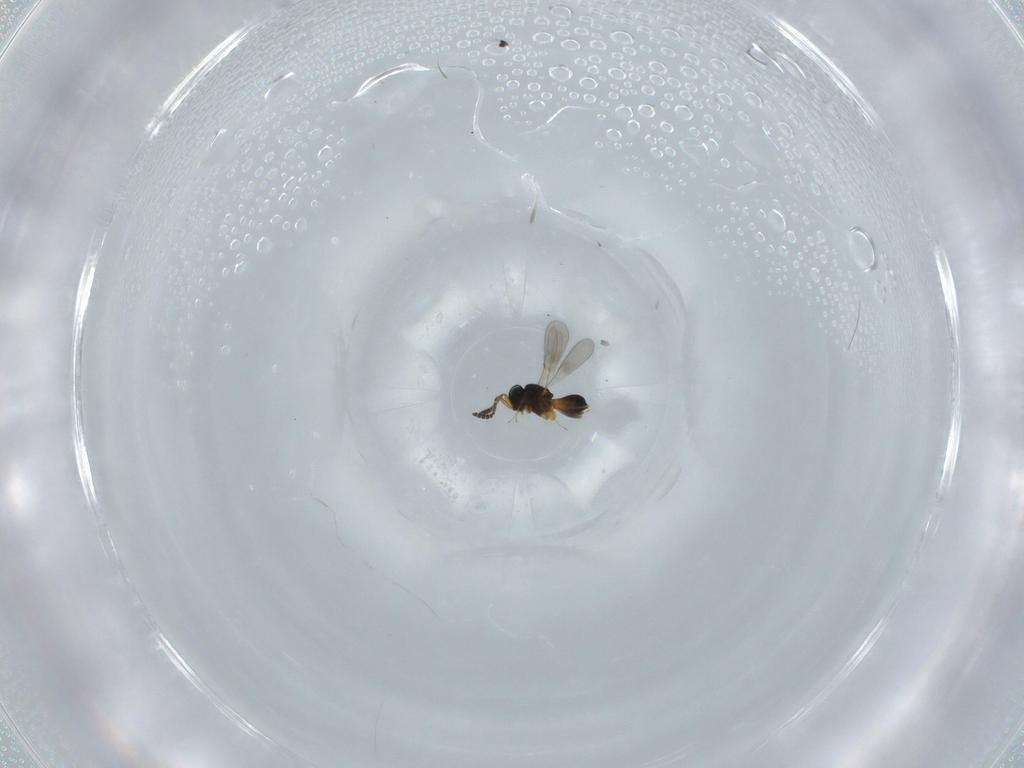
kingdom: Animalia
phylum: Arthropoda
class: Insecta
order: Hymenoptera
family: Scelionidae
